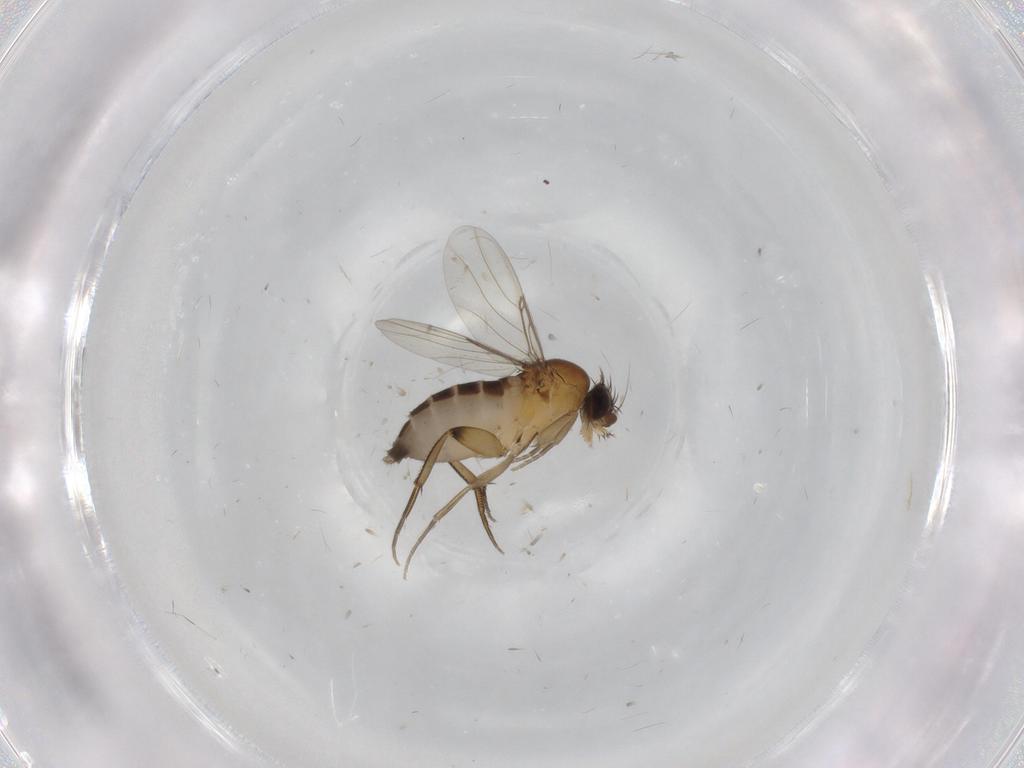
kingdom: Animalia
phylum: Arthropoda
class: Insecta
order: Diptera
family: Phoridae
